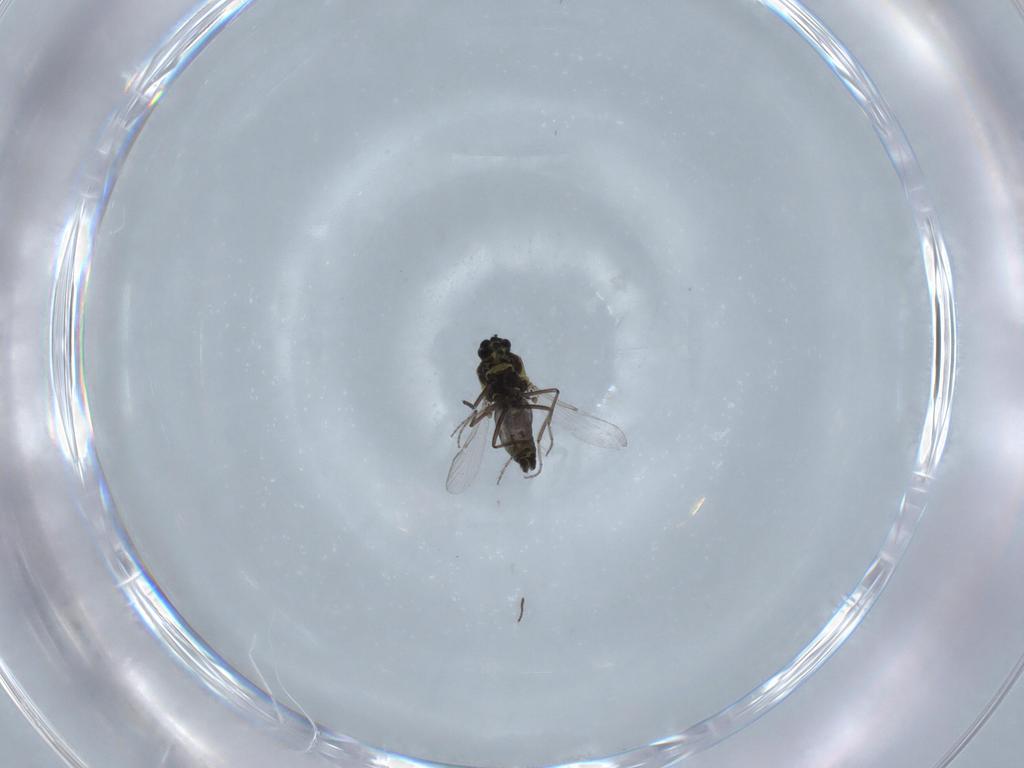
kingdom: Animalia
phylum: Arthropoda
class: Insecta
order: Diptera
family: Ceratopogonidae
